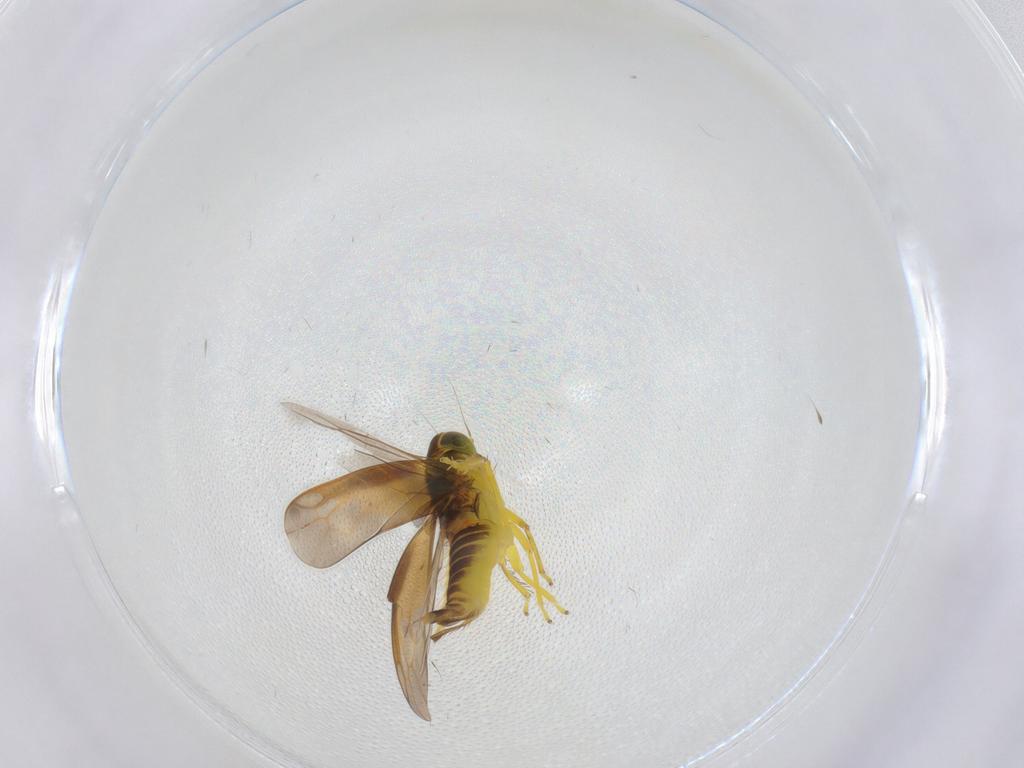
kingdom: Animalia
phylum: Arthropoda
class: Insecta
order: Hemiptera
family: Cicadellidae
